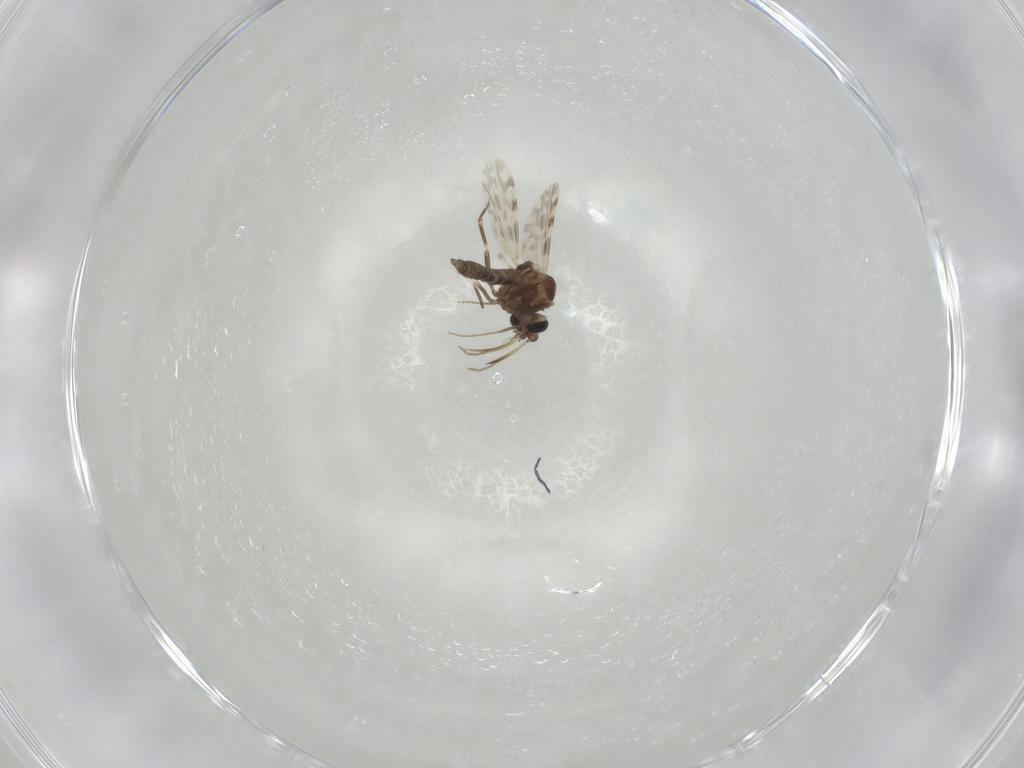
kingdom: Animalia
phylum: Arthropoda
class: Insecta
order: Diptera
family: Ceratopogonidae
